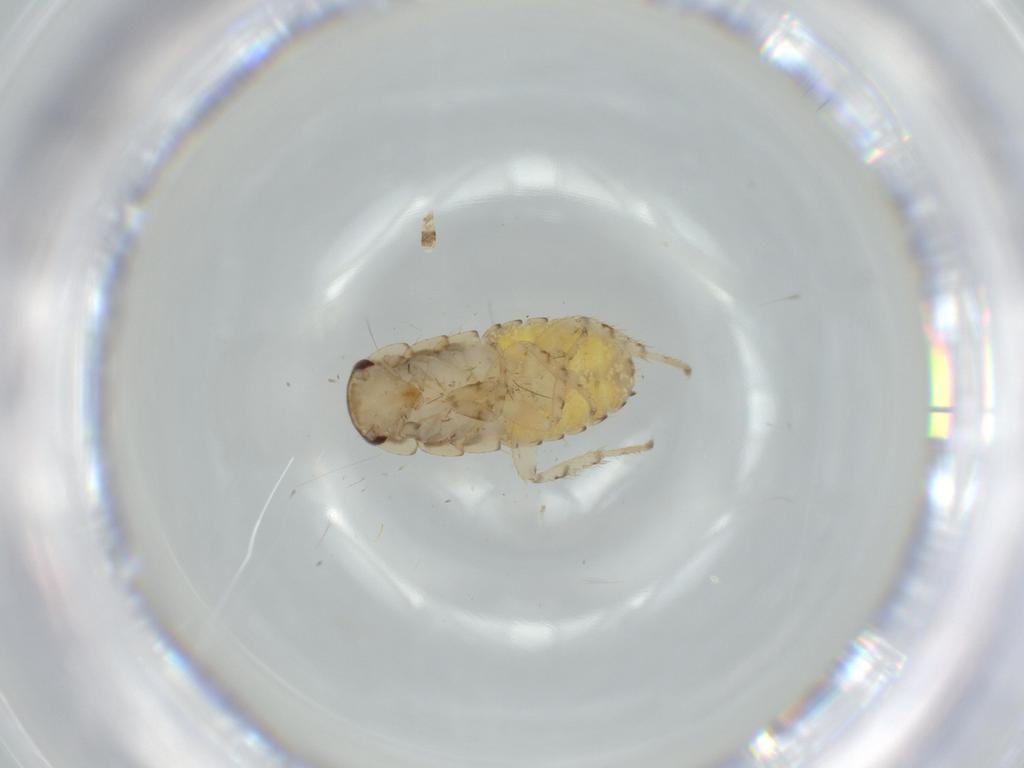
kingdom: Animalia
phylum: Arthropoda
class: Insecta
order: Blattodea
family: Ectobiidae
